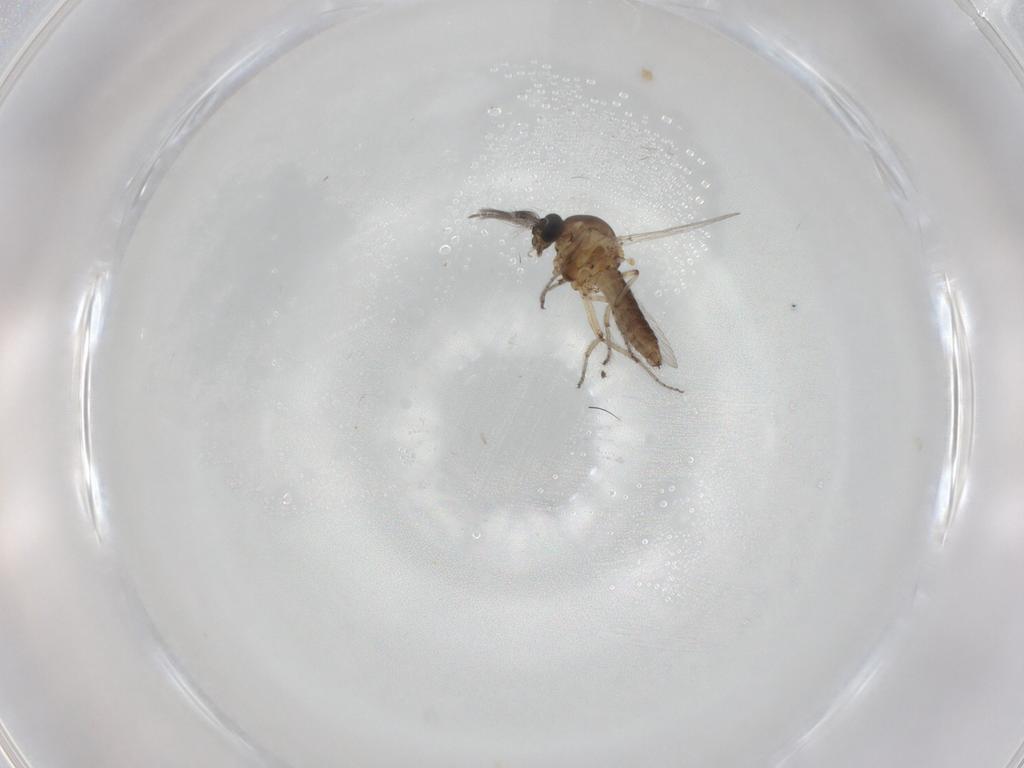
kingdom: Animalia
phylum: Arthropoda
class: Insecta
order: Diptera
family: Ceratopogonidae
